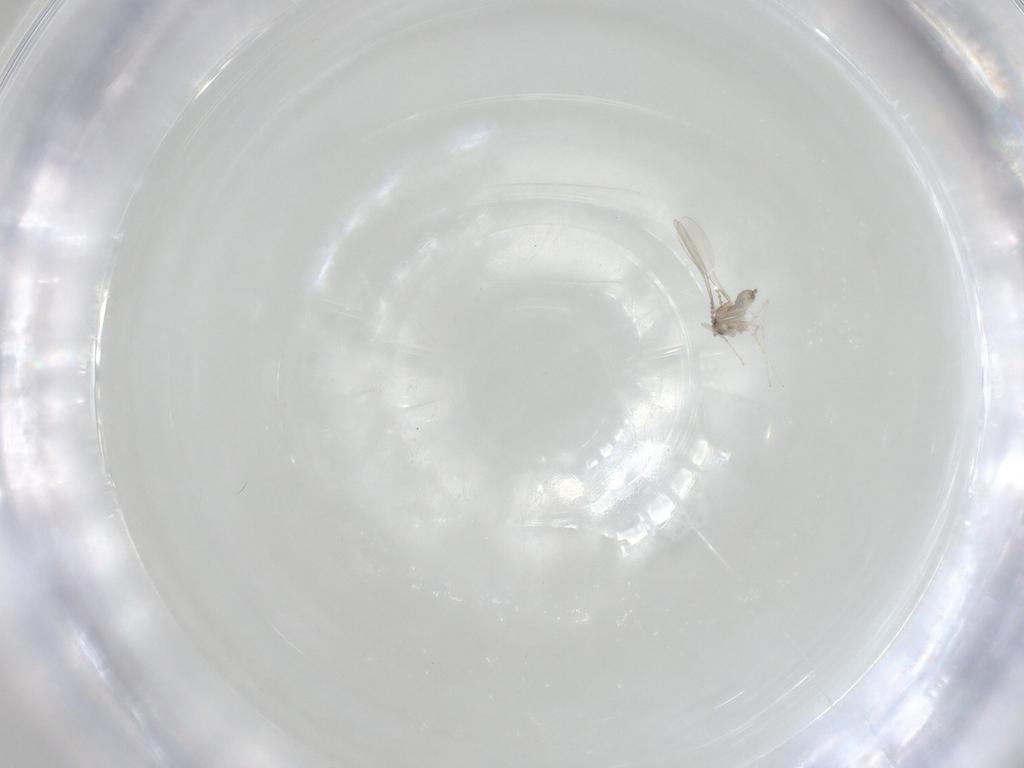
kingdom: Animalia
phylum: Arthropoda
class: Insecta
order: Diptera
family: Cecidomyiidae
